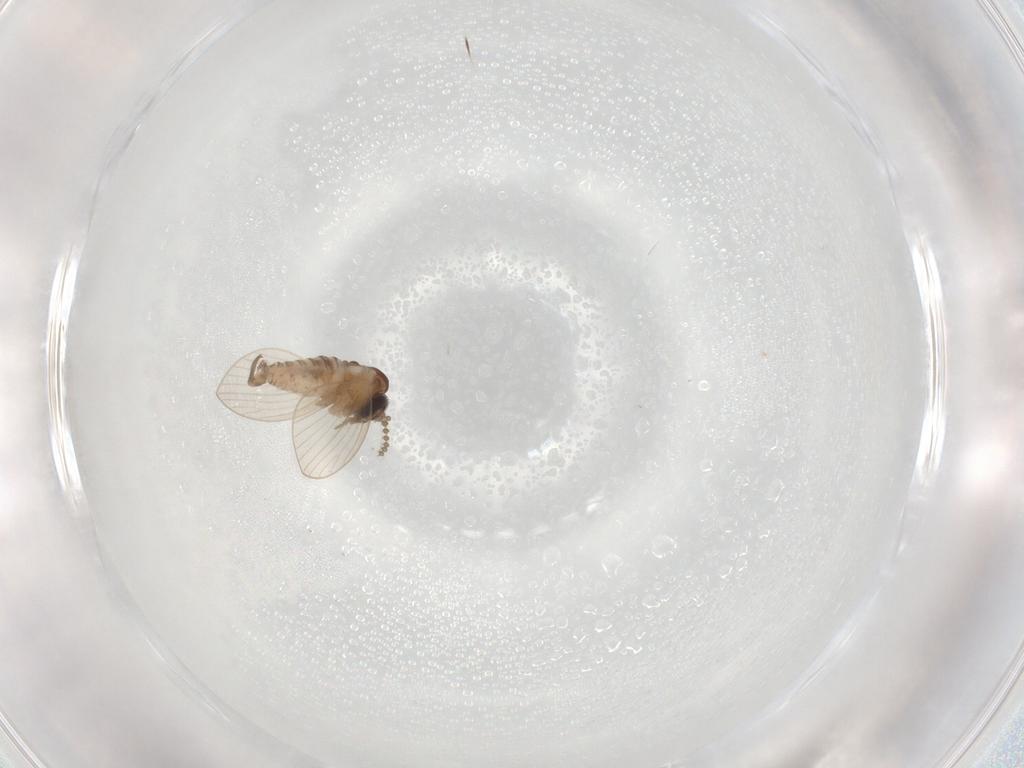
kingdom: Animalia
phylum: Arthropoda
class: Insecta
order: Diptera
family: Psychodidae
